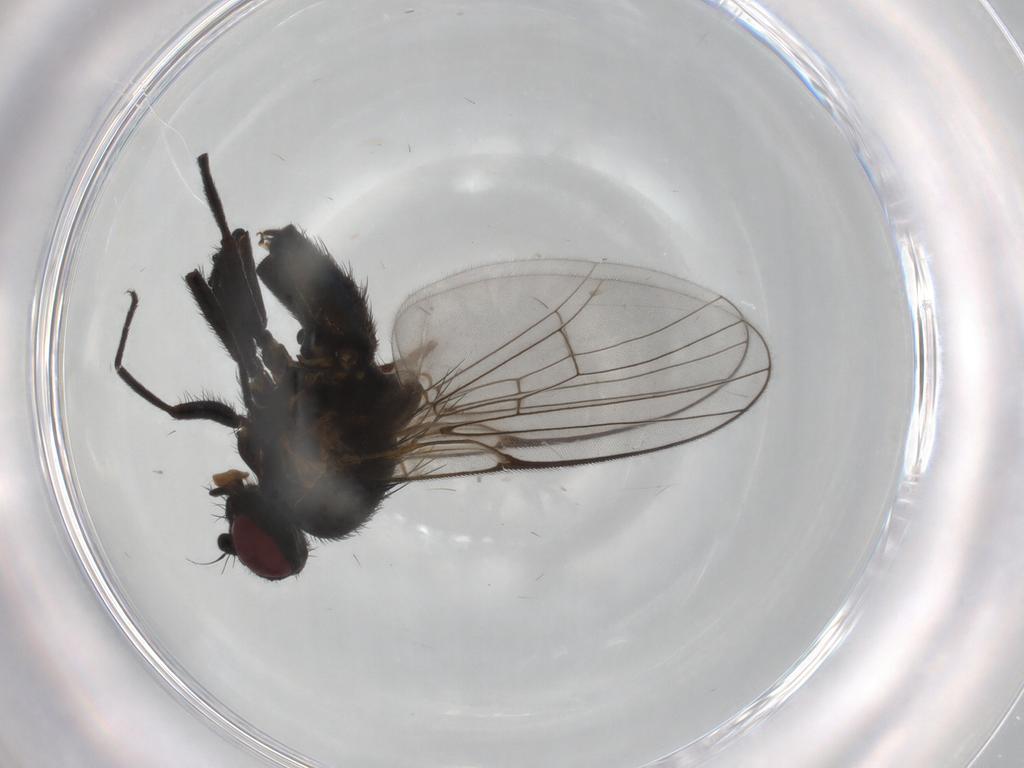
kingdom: Animalia
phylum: Arthropoda
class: Insecta
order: Diptera
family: Tipulidae
